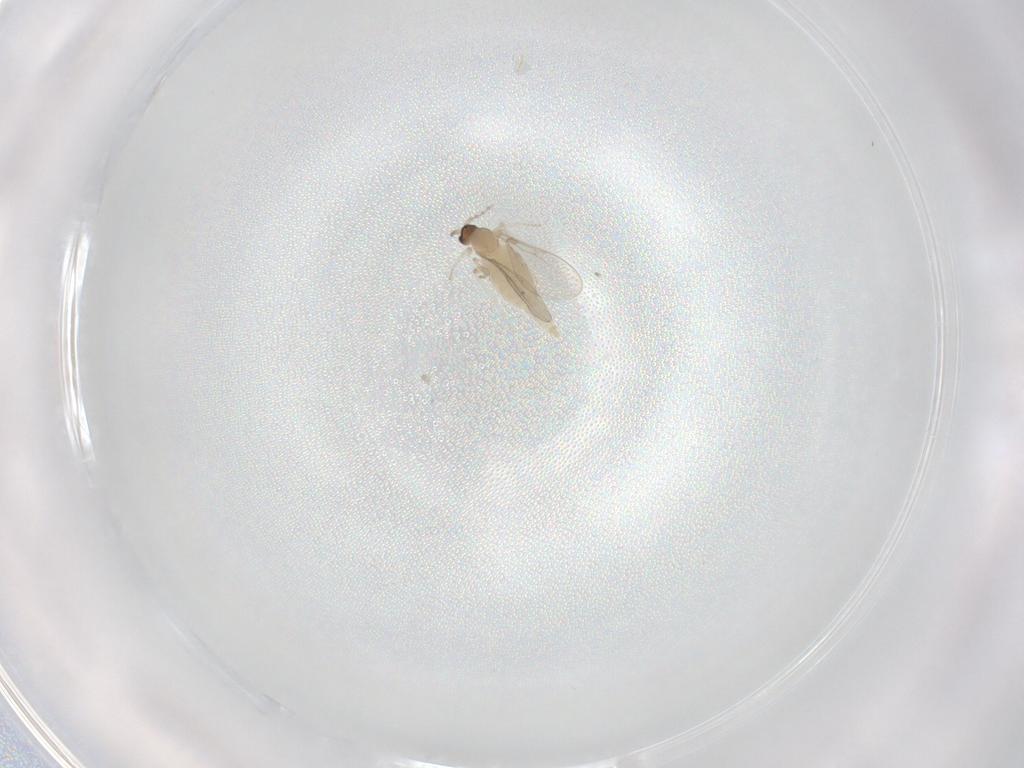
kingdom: Animalia
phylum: Arthropoda
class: Insecta
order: Diptera
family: Cecidomyiidae
